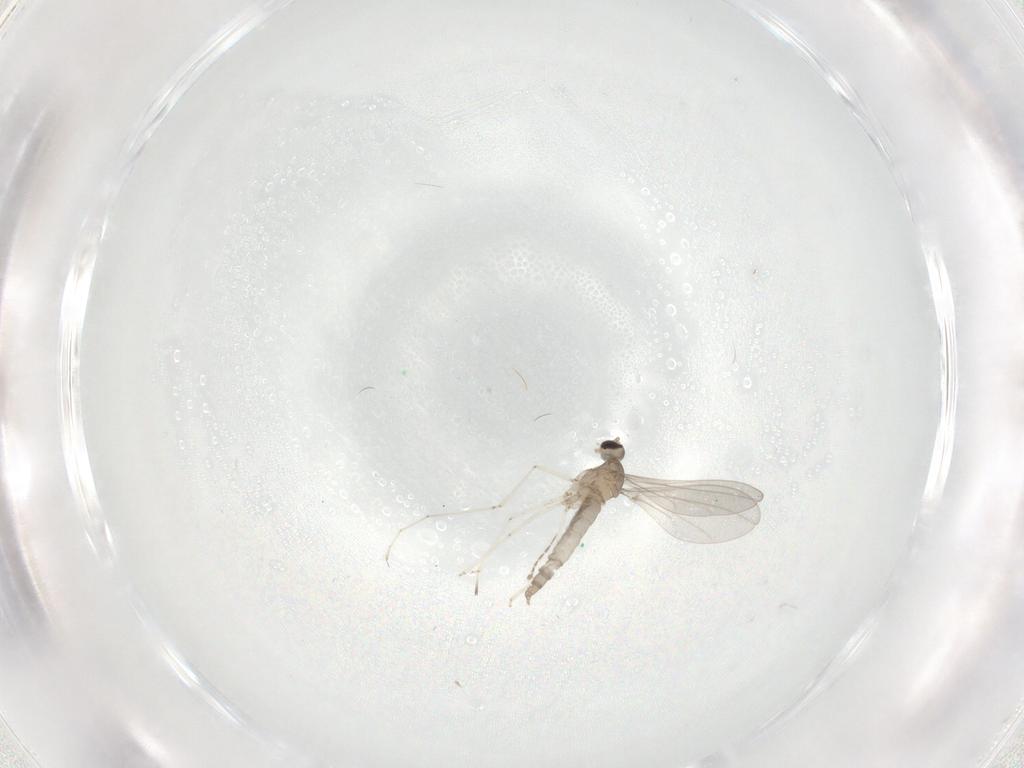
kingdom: Animalia
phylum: Arthropoda
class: Insecta
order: Diptera
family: Ceratopogonidae
